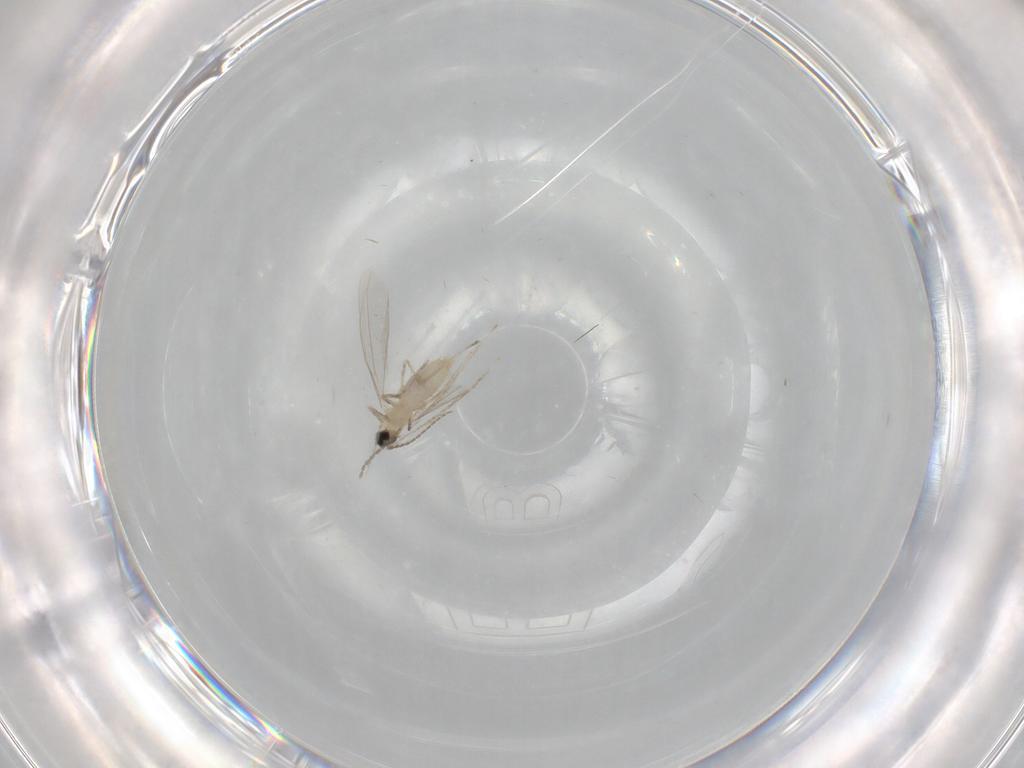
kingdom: Animalia
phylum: Arthropoda
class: Insecta
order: Diptera
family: Cecidomyiidae
